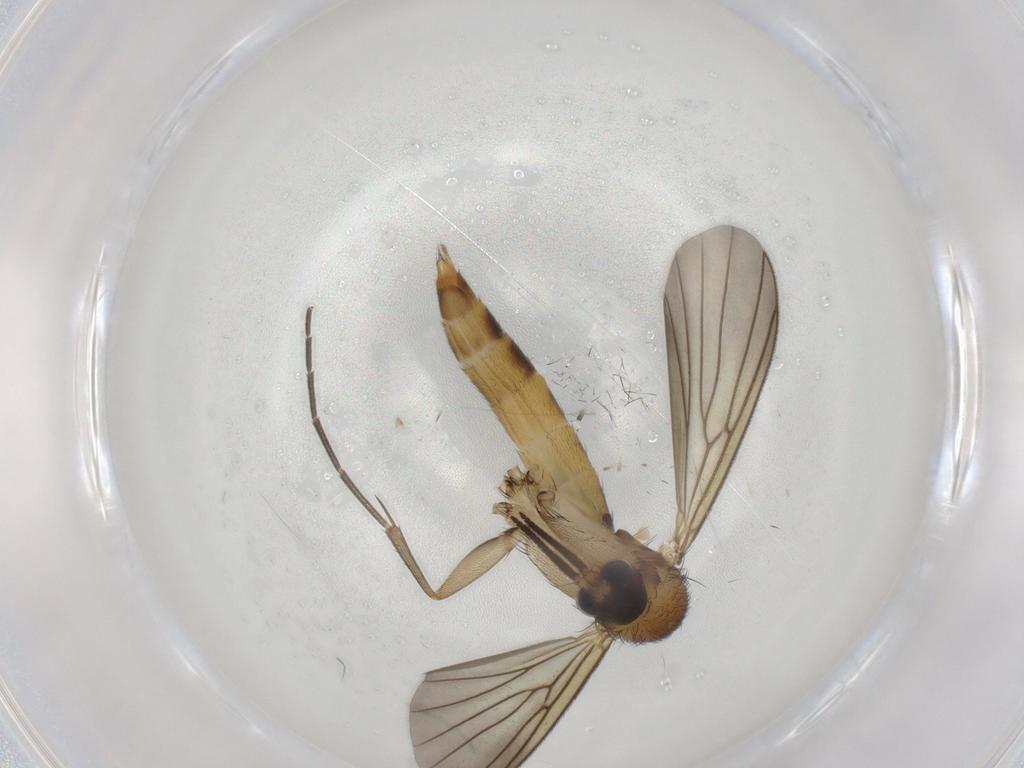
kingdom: Animalia
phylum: Arthropoda
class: Insecta
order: Diptera
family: Mycetophilidae
